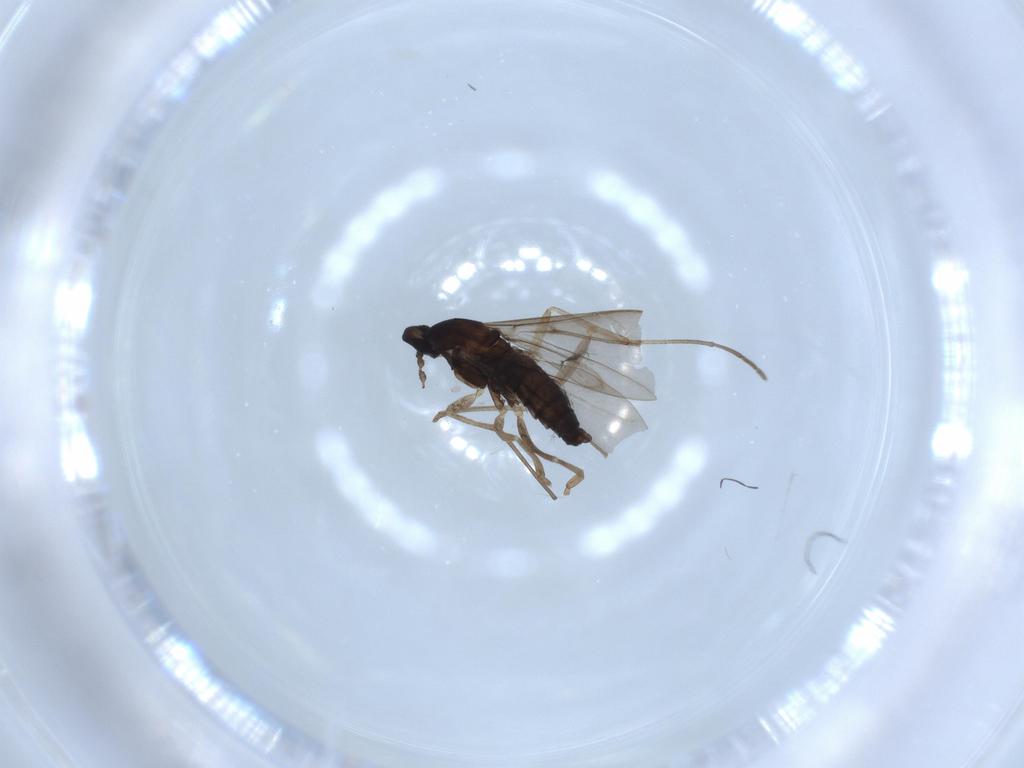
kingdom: Animalia
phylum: Arthropoda
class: Insecta
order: Diptera
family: Cecidomyiidae
